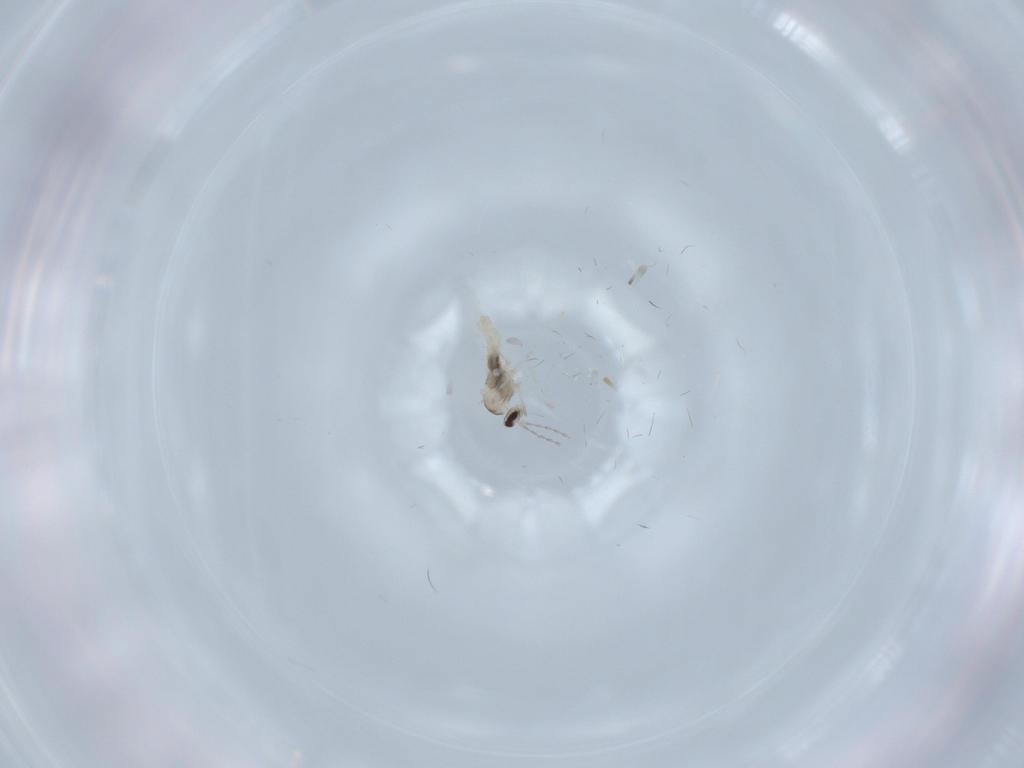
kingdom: Animalia
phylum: Arthropoda
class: Insecta
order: Diptera
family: Cecidomyiidae
